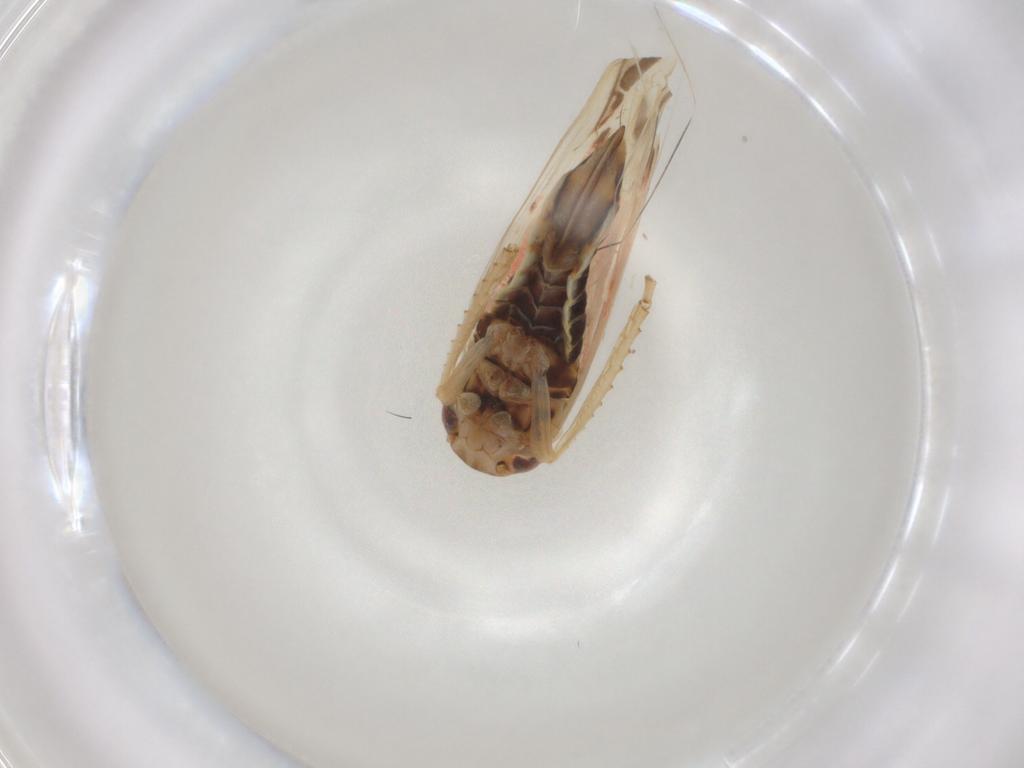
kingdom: Animalia
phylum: Arthropoda
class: Insecta
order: Hemiptera
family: Cicadellidae
